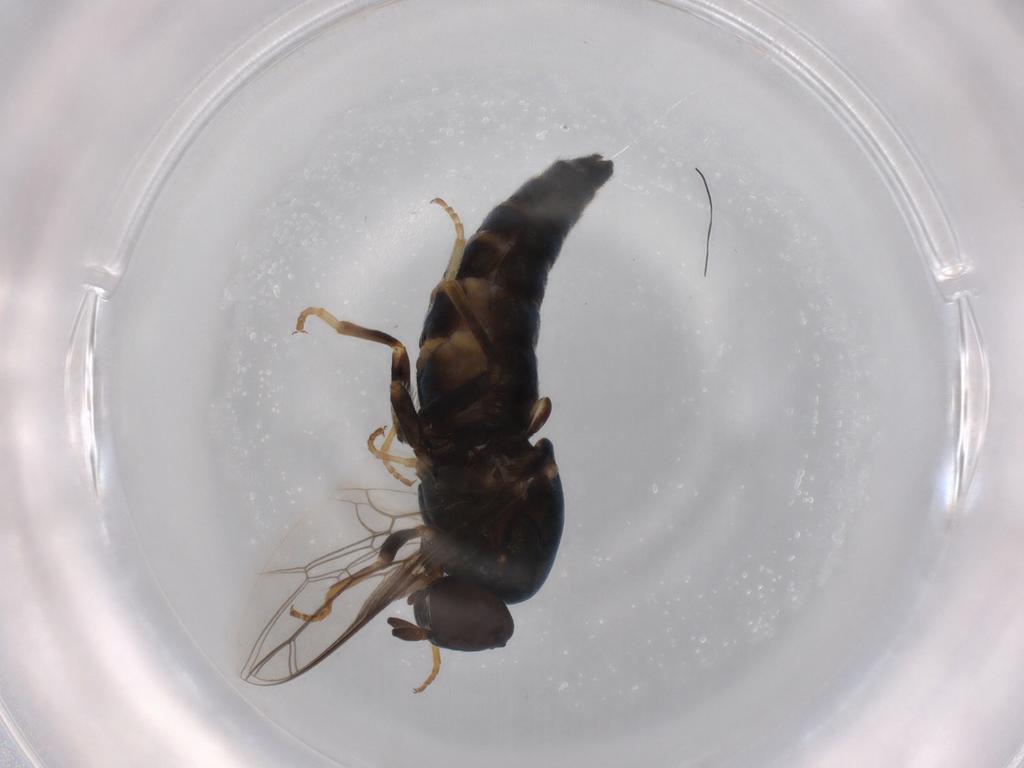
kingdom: Animalia
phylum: Arthropoda
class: Insecta
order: Diptera
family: Scenopinidae
